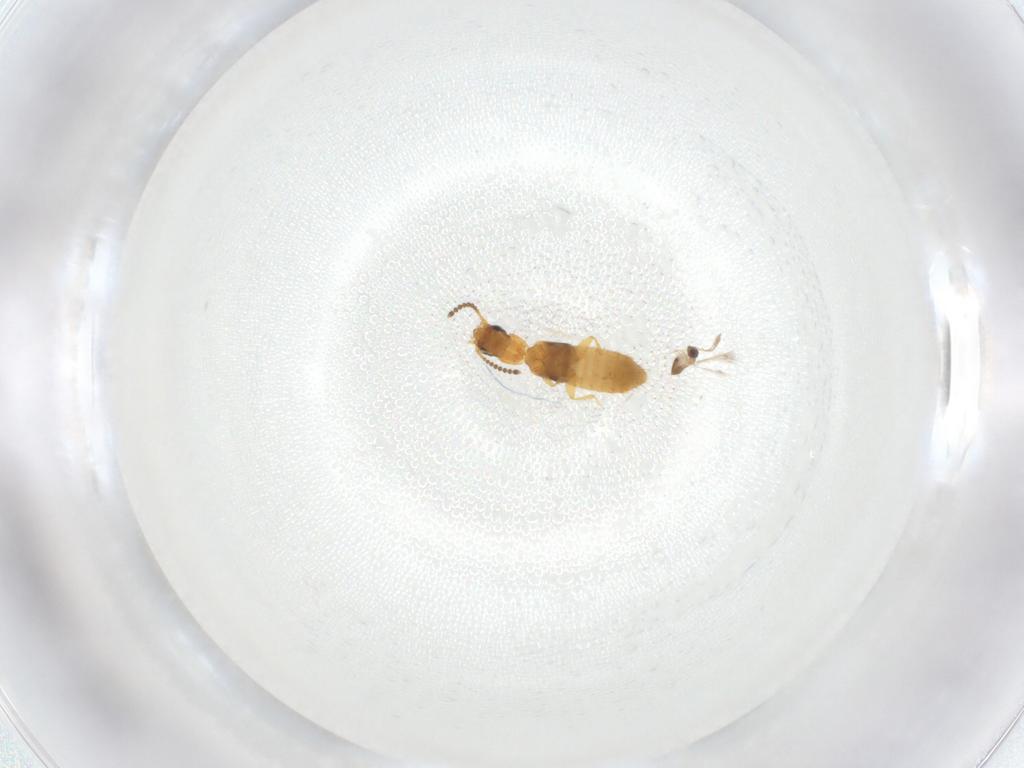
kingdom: Animalia
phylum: Arthropoda
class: Insecta
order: Coleoptera
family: Staphylinidae
